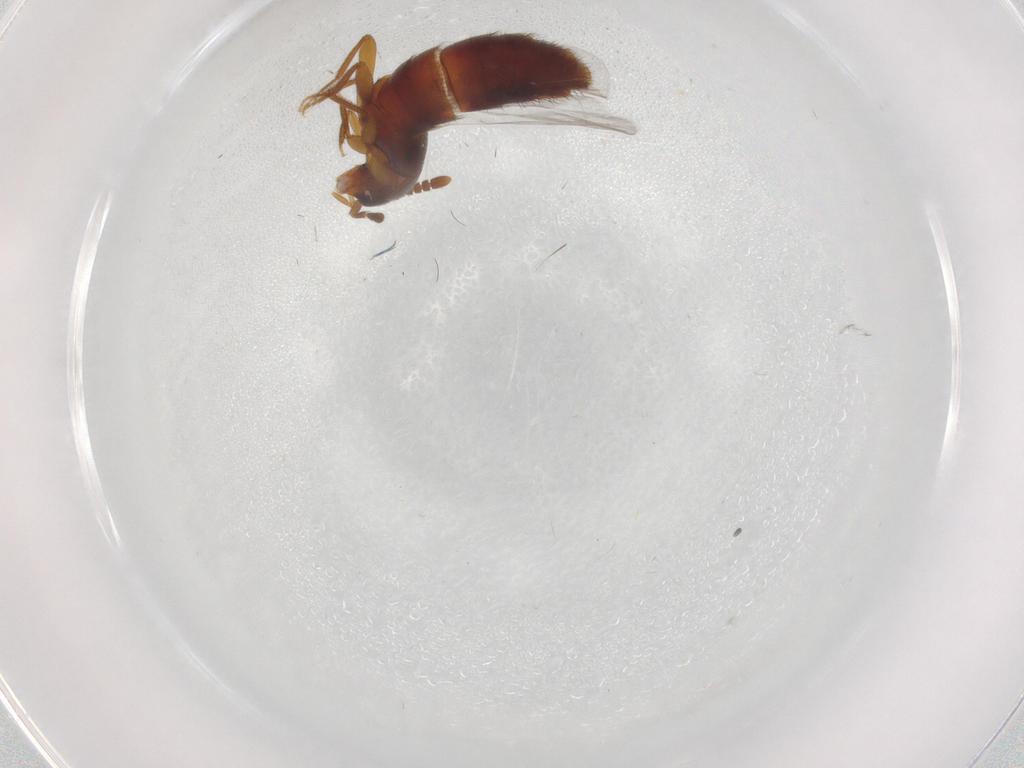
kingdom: Animalia
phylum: Arthropoda
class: Insecta
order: Coleoptera
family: Staphylinidae
